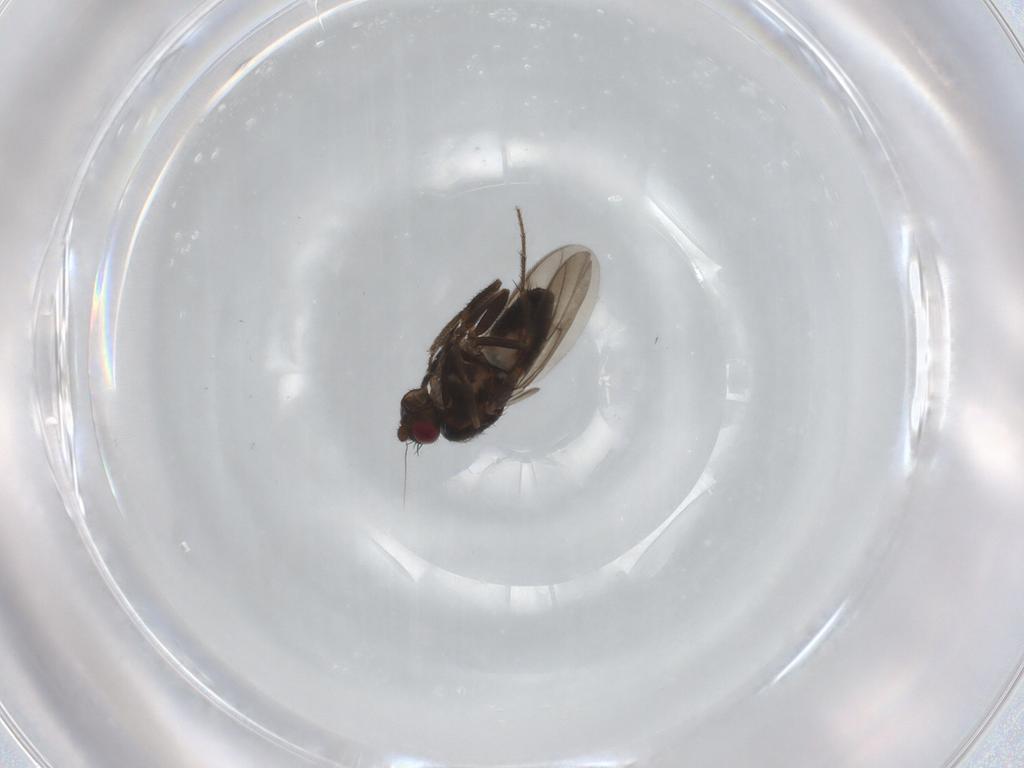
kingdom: Animalia
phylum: Arthropoda
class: Insecta
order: Diptera
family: Sphaeroceridae
